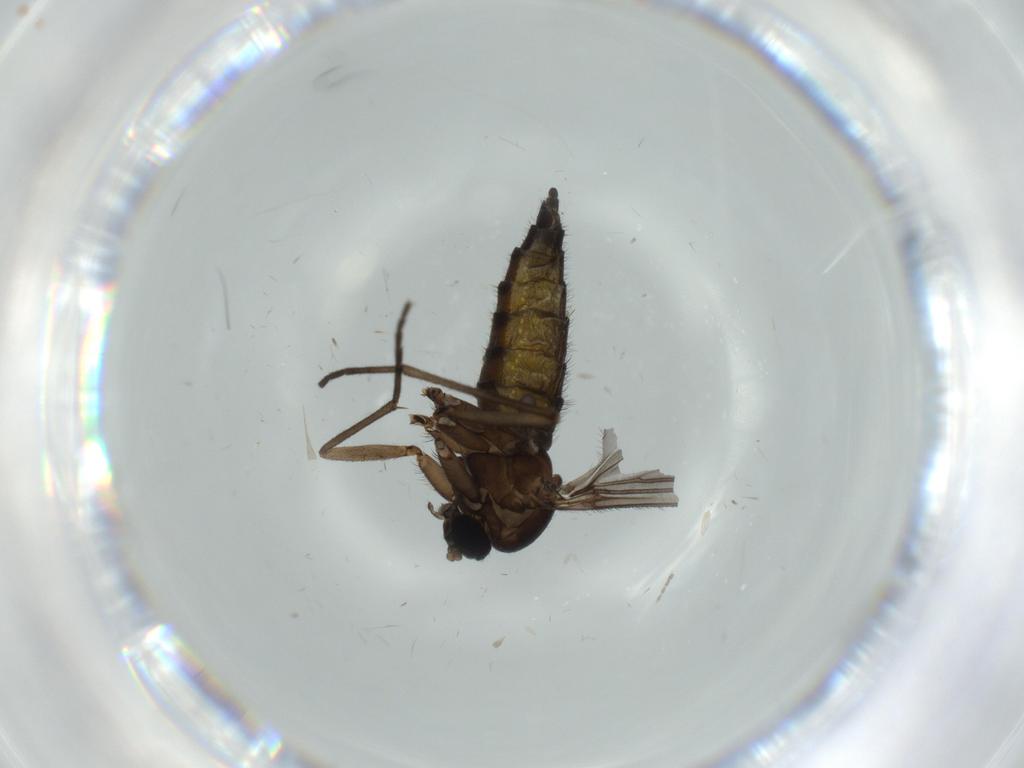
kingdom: Animalia
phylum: Arthropoda
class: Insecta
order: Diptera
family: Sciaridae
